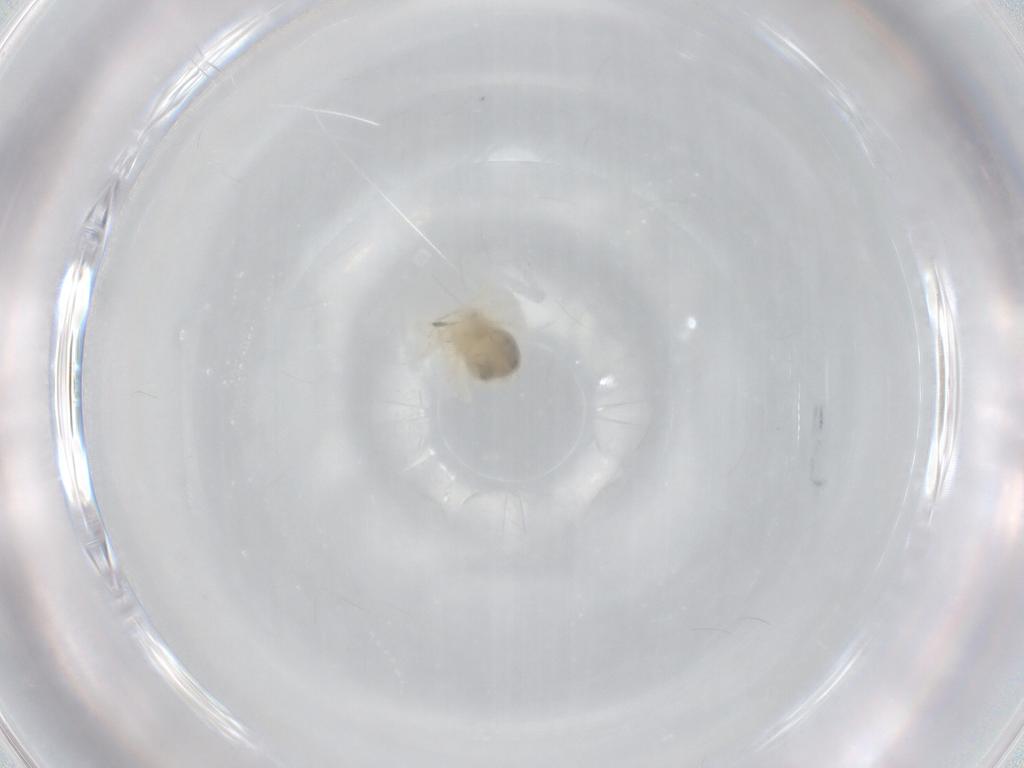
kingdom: Animalia
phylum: Arthropoda
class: Arachnida
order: Trombidiformes
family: Anystidae
